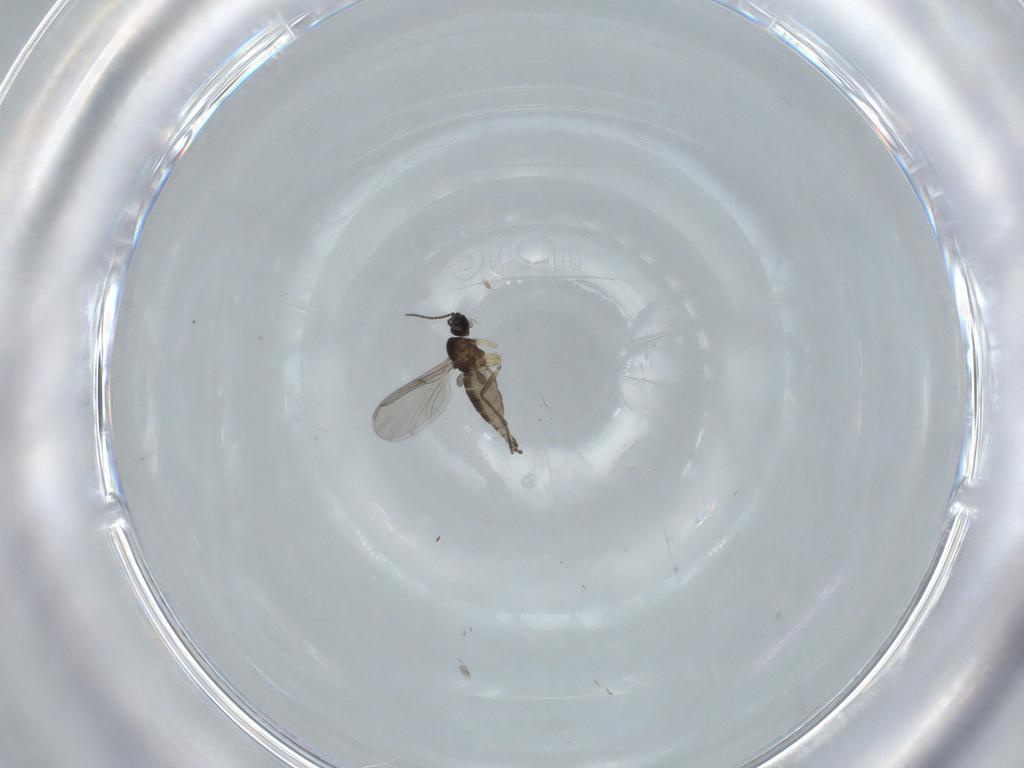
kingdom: Animalia
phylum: Arthropoda
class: Insecta
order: Diptera
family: Sciaridae
